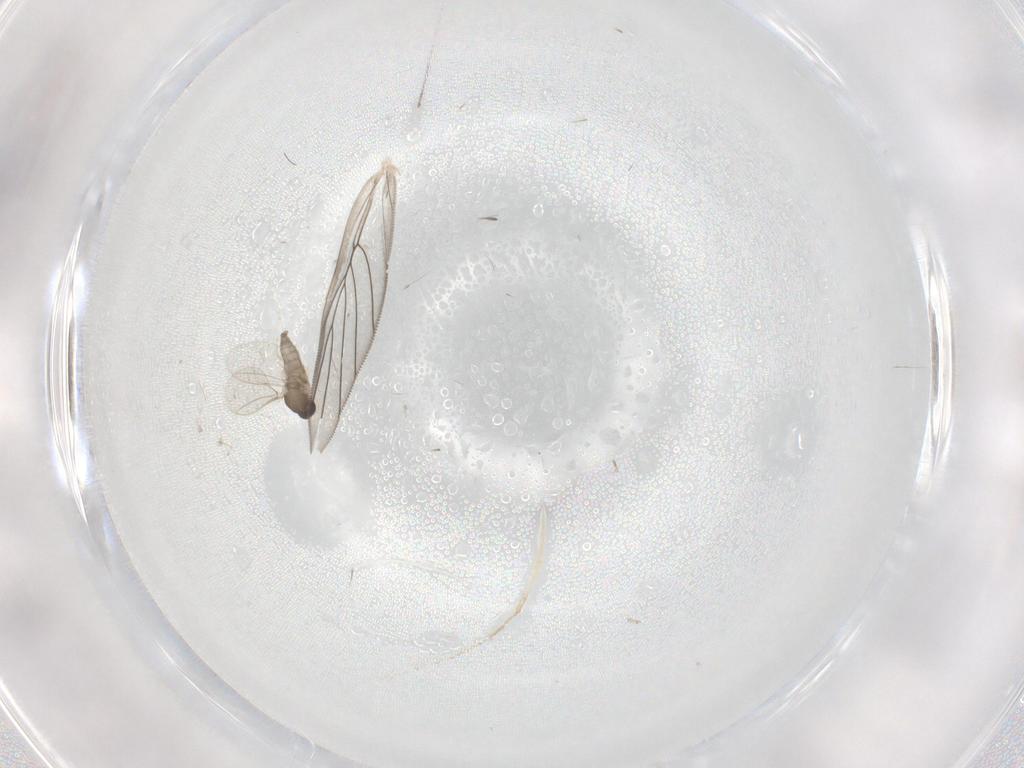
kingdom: Animalia
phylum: Arthropoda
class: Insecta
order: Diptera
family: Cecidomyiidae
